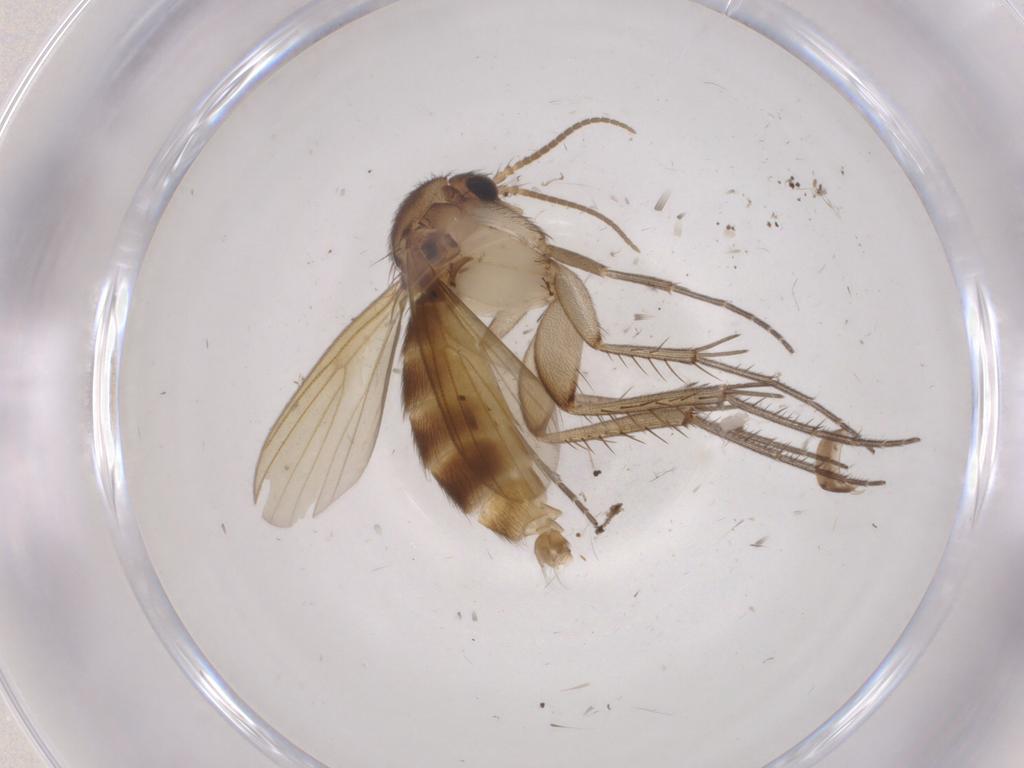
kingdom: Animalia
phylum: Arthropoda
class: Insecta
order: Diptera
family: Mycetophilidae
